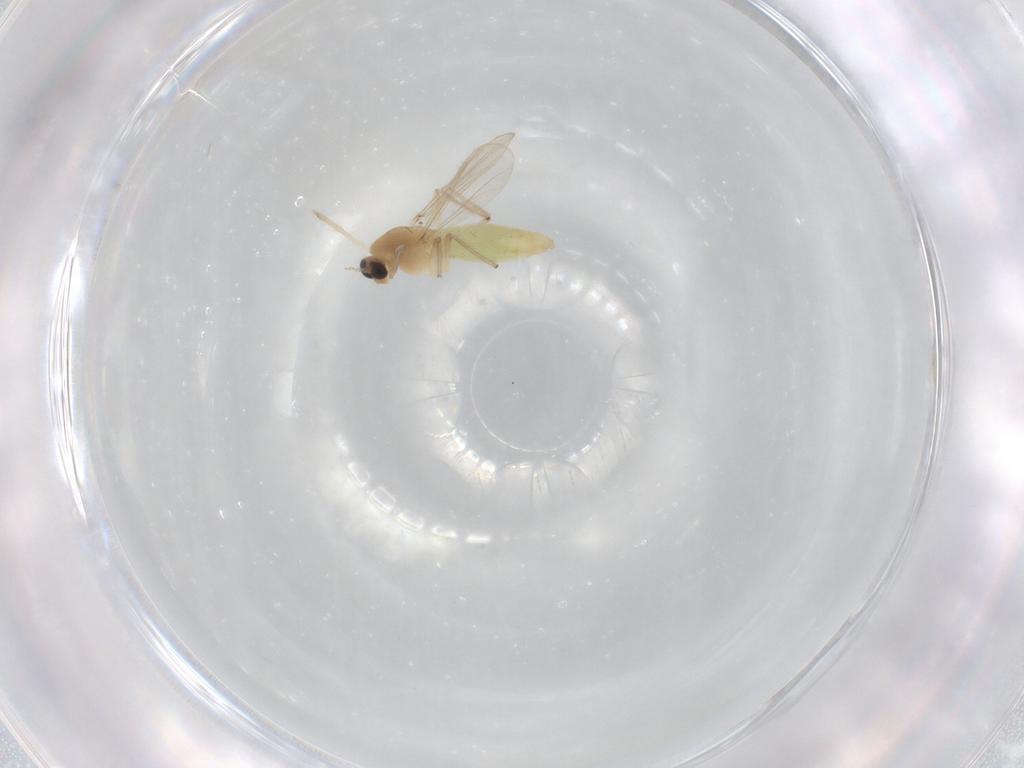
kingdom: Animalia
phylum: Arthropoda
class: Insecta
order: Diptera
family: Chironomidae
